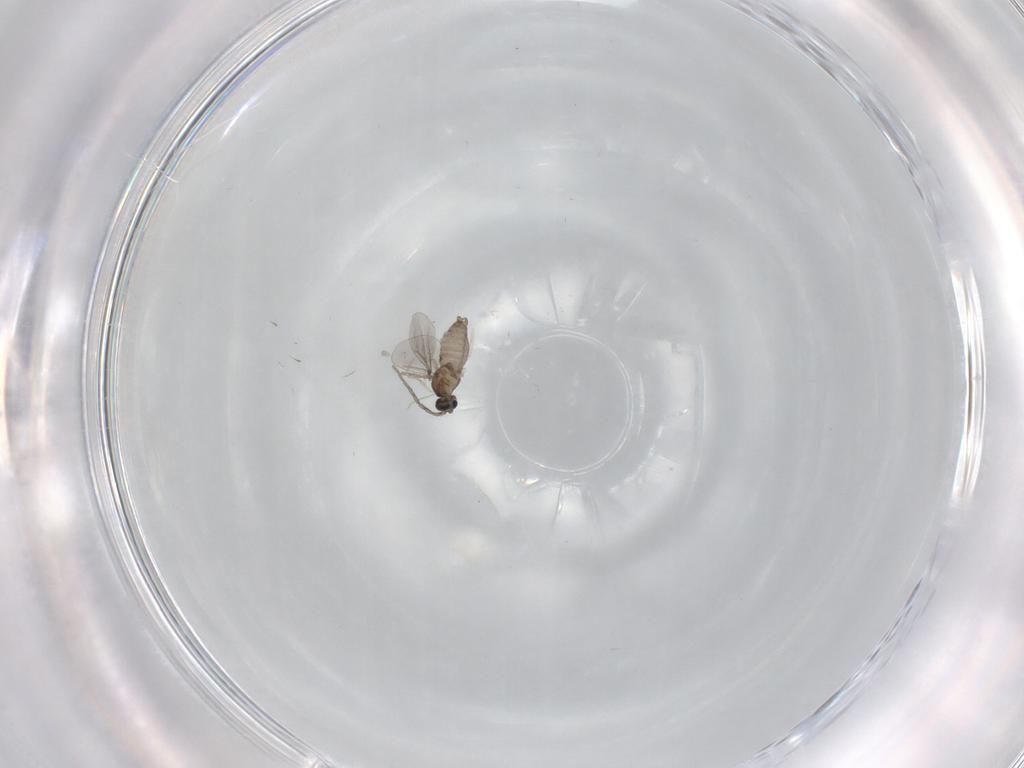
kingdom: Animalia
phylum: Arthropoda
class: Insecta
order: Diptera
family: Cecidomyiidae
